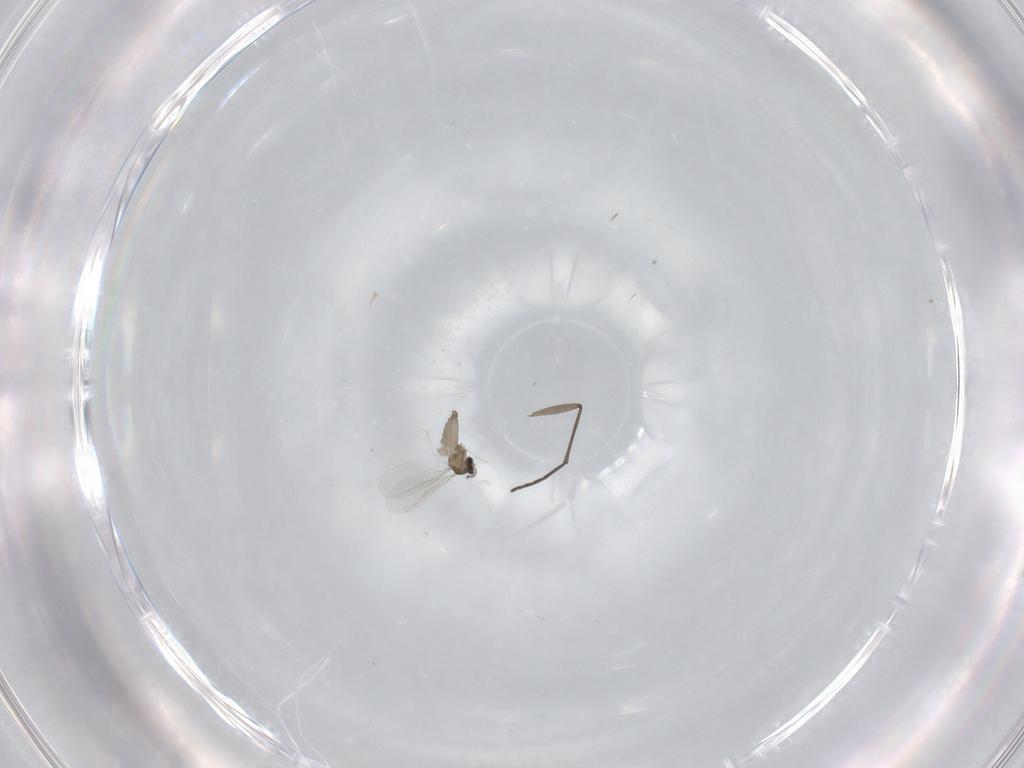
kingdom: Animalia
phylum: Arthropoda
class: Insecta
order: Diptera
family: Sciaridae
